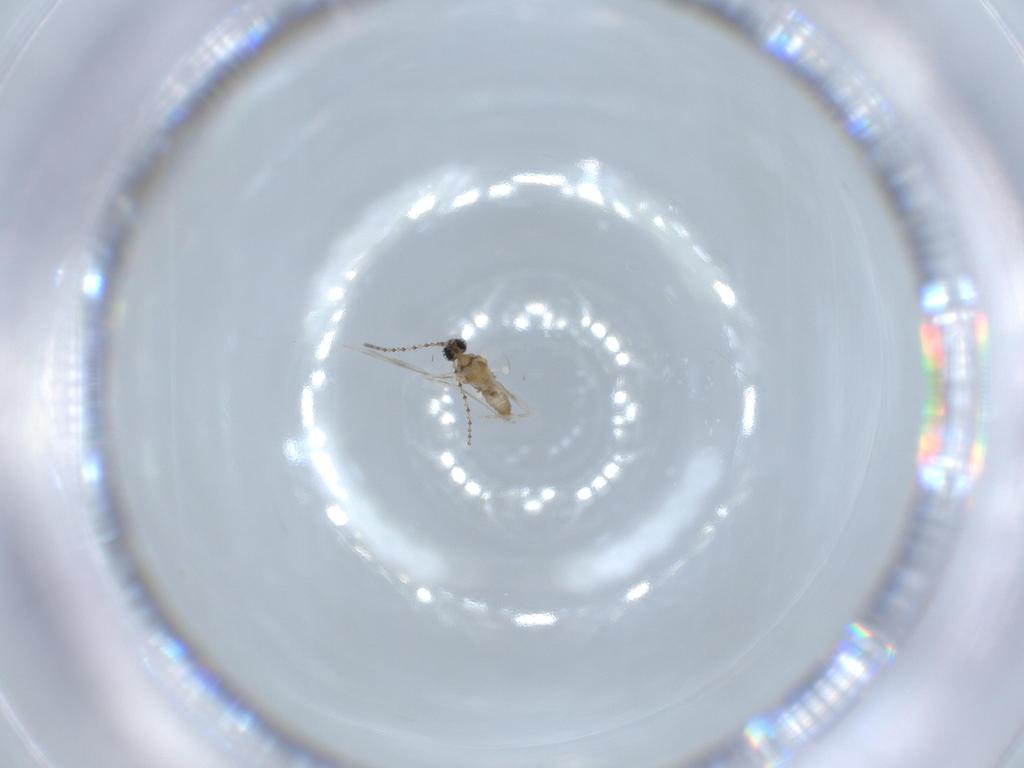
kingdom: Animalia
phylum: Arthropoda
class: Insecta
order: Diptera
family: Cecidomyiidae
